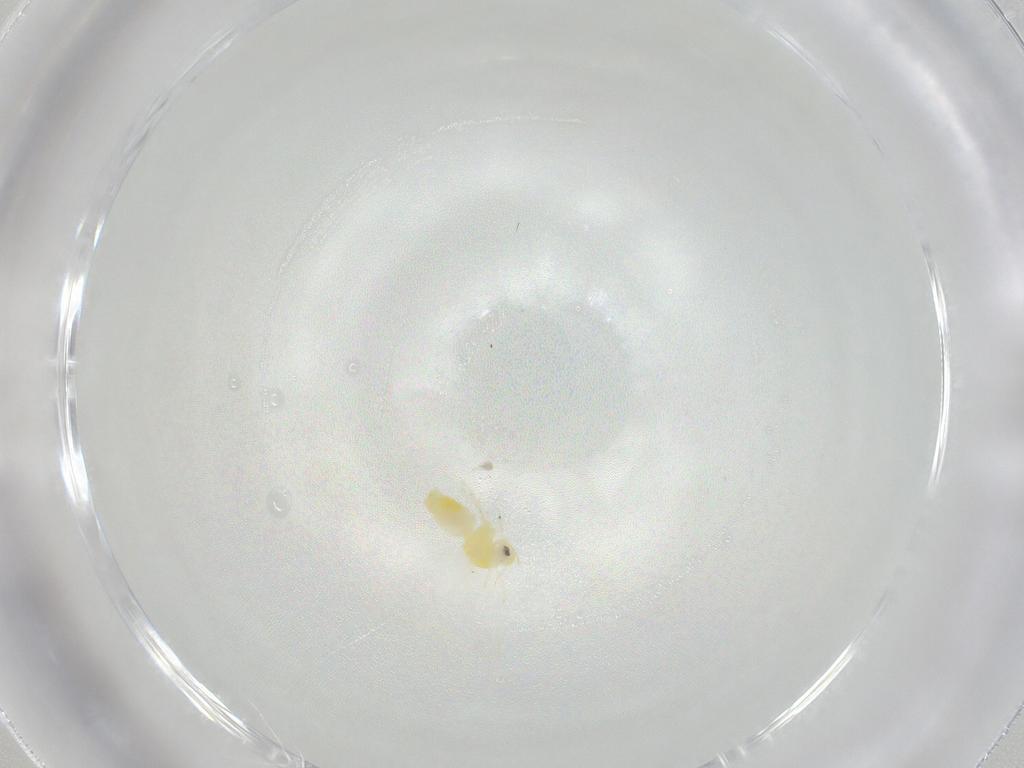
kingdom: Animalia
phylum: Arthropoda
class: Insecta
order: Hemiptera
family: Aleyrodidae
